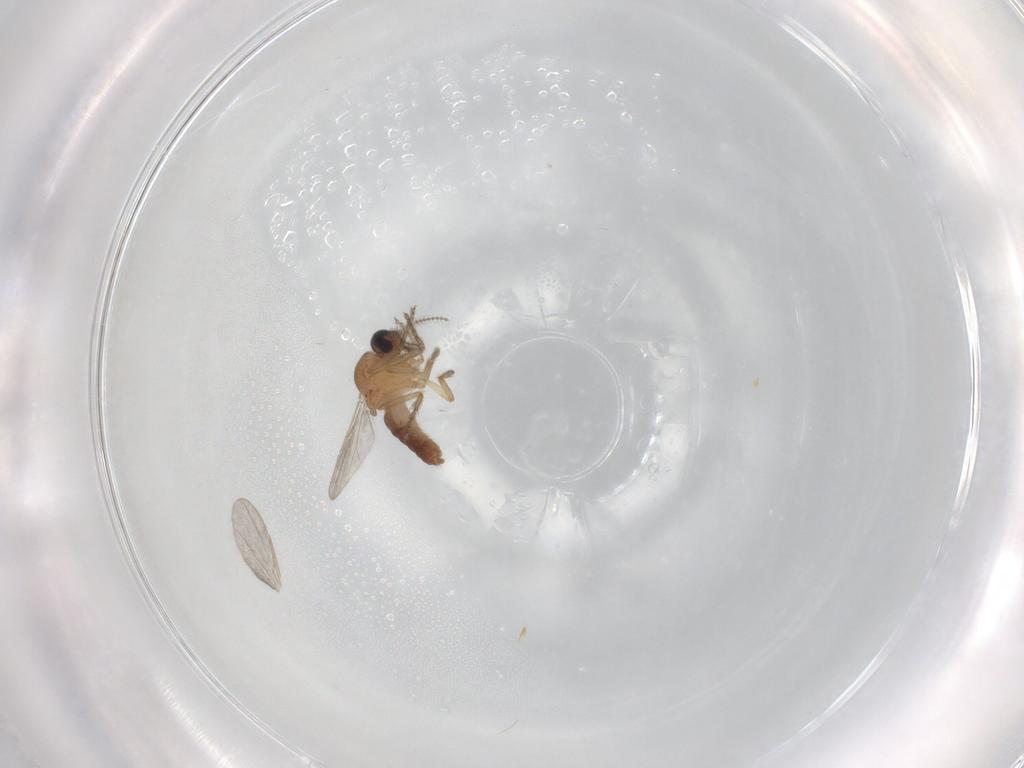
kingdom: Animalia
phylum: Arthropoda
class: Insecta
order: Diptera
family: Ceratopogonidae
